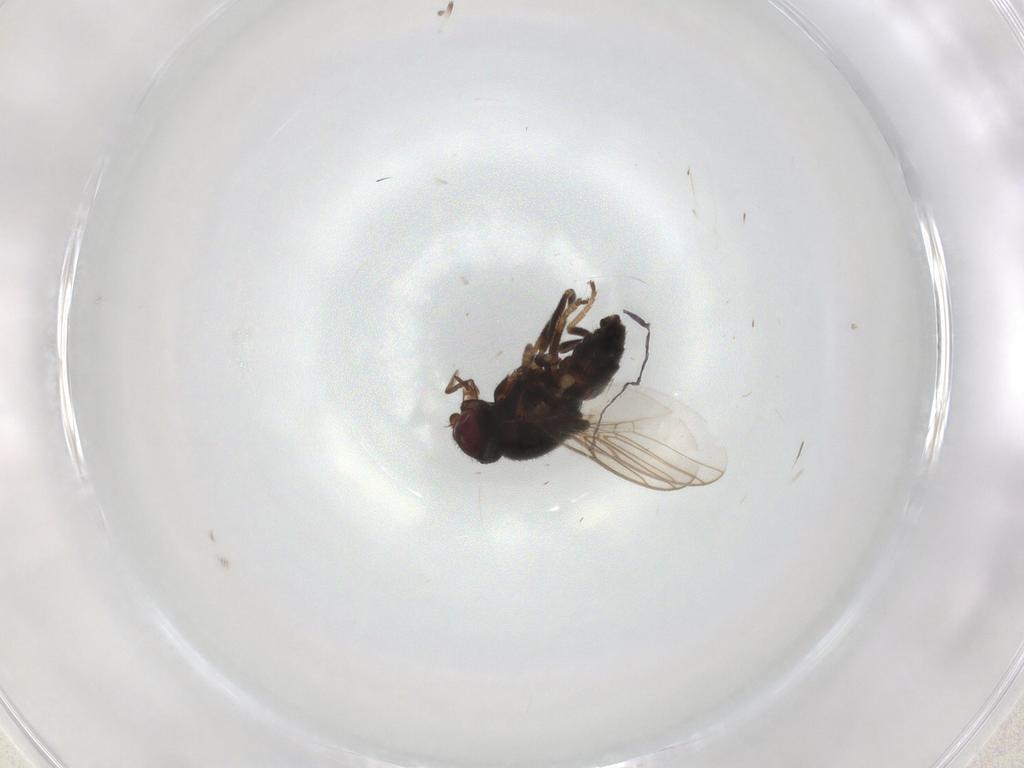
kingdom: Animalia
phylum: Arthropoda
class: Insecta
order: Diptera
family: Chloropidae
